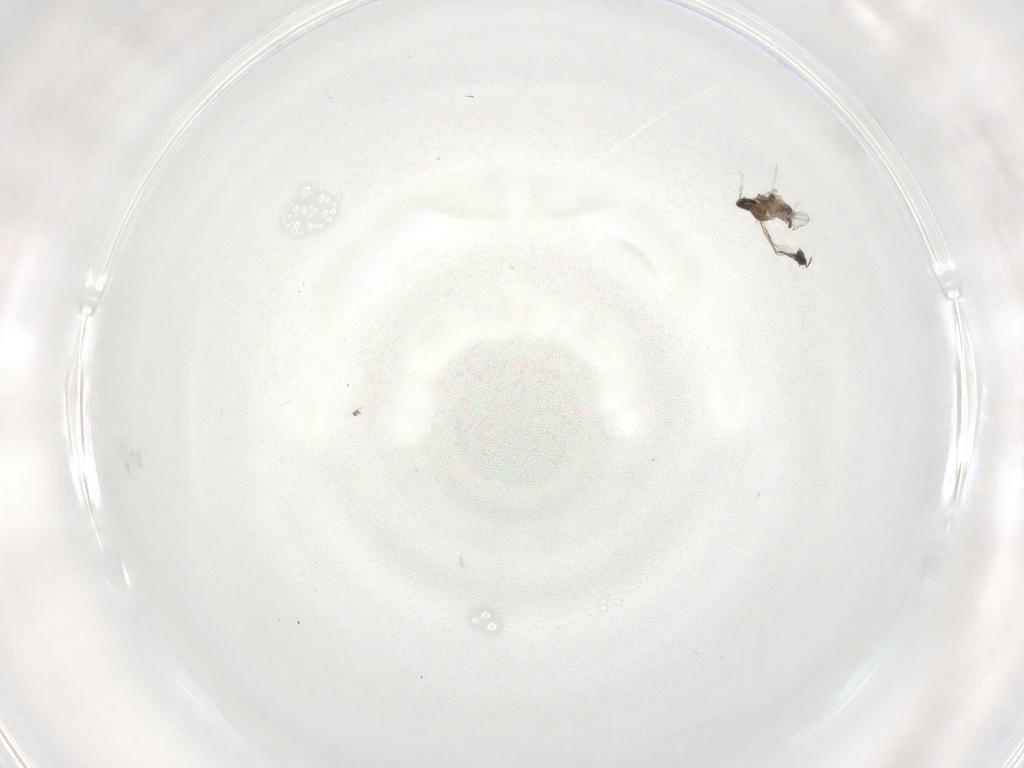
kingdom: Animalia
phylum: Arthropoda
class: Insecta
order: Diptera
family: Cecidomyiidae
